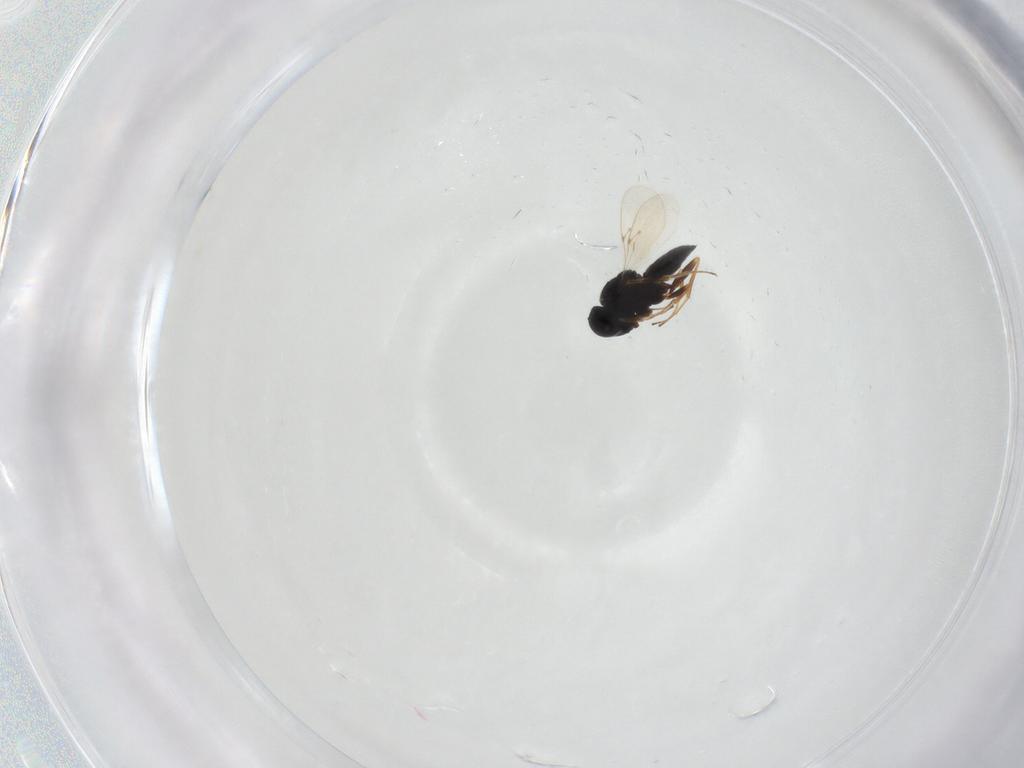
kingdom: Animalia
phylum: Arthropoda
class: Insecta
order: Hymenoptera
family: Scelionidae
